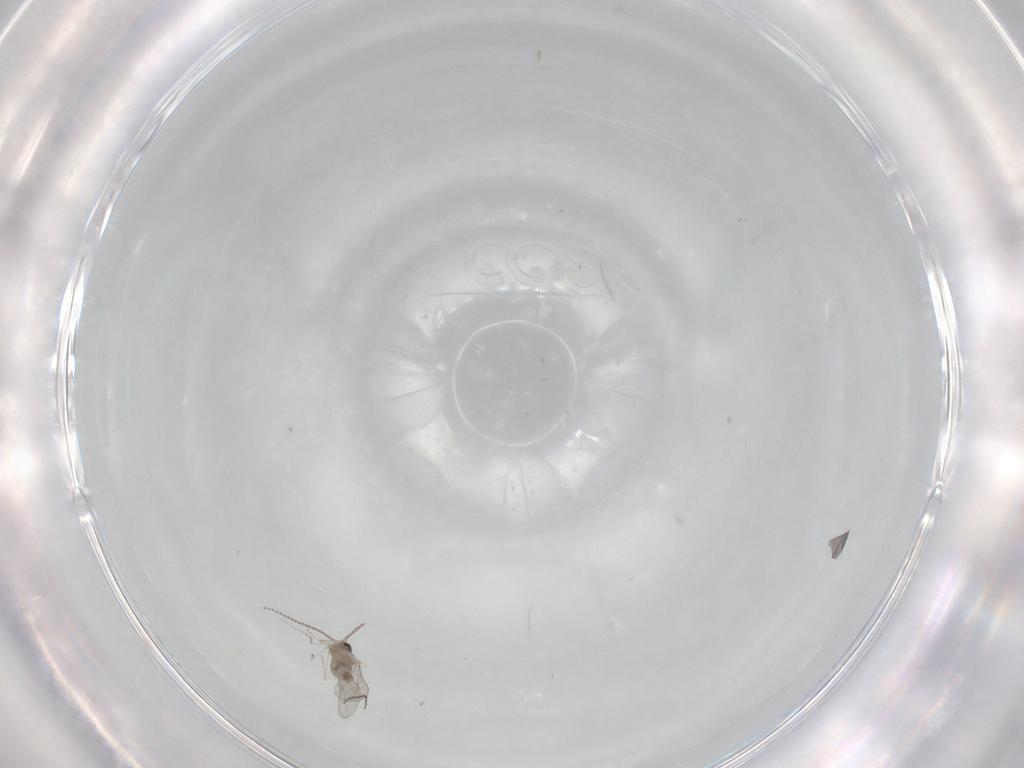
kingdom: Animalia
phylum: Arthropoda
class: Insecta
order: Diptera
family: Cecidomyiidae
